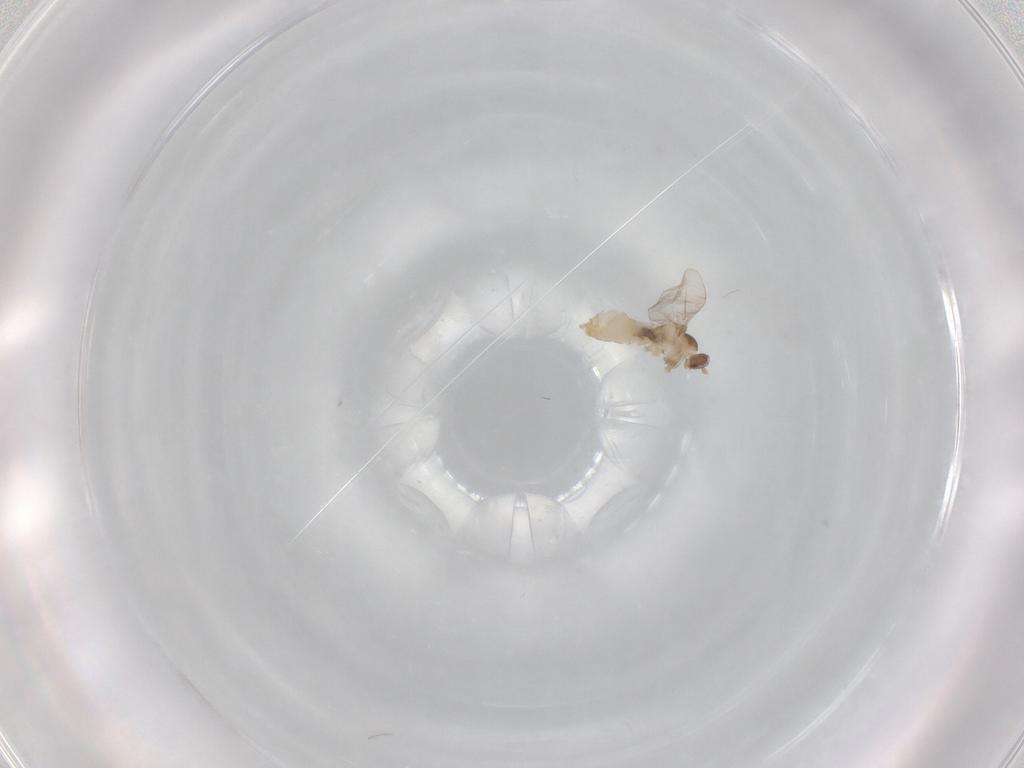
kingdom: Animalia
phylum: Arthropoda
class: Insecta
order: Diptera
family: Cecidomyiidae
